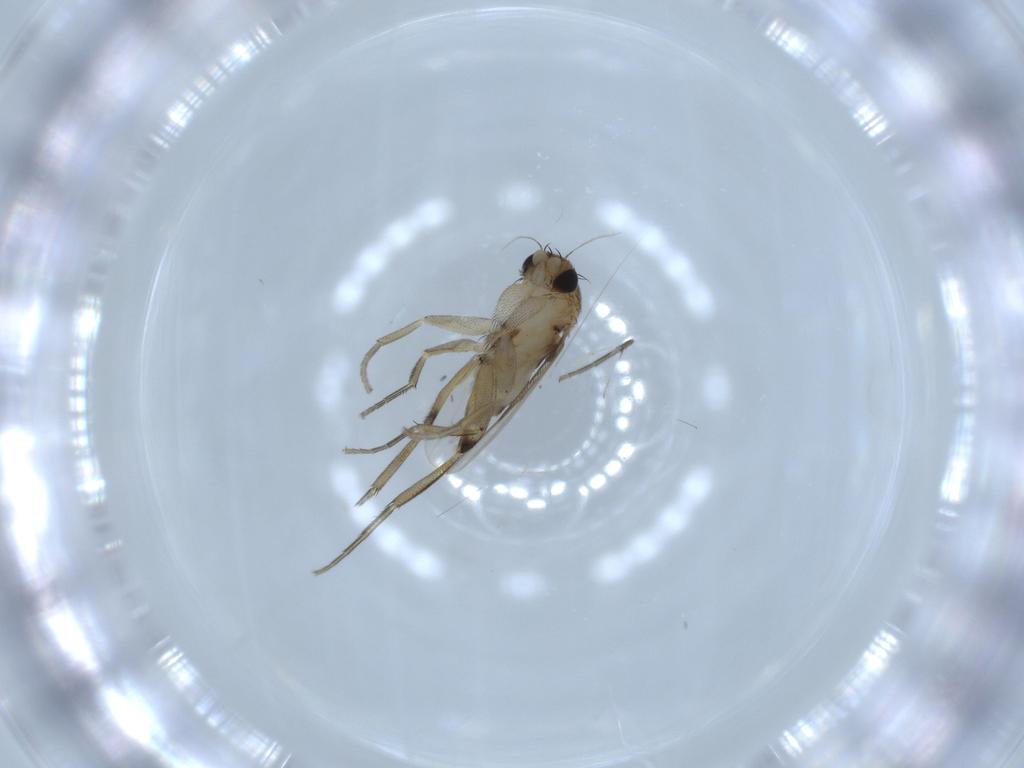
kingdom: Animalia
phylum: Arthropoda
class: Insecta
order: Diptera
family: Phoridae
